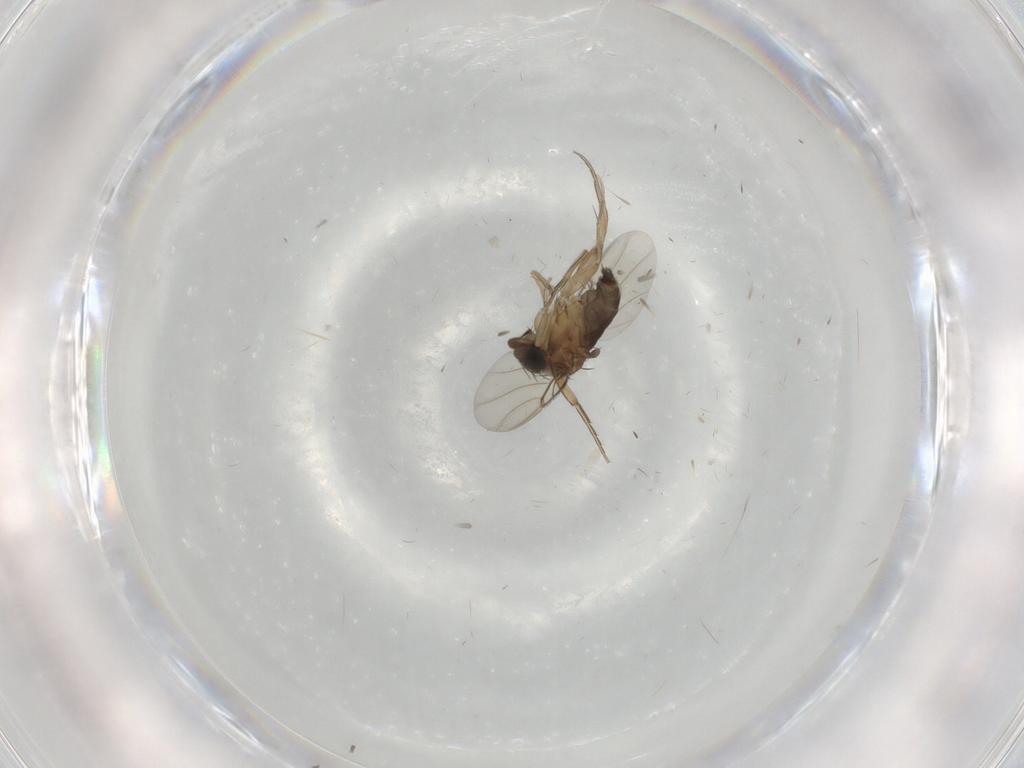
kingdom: Animalia
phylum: Arthropoda
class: Insecta
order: Diptera
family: Phoridae
